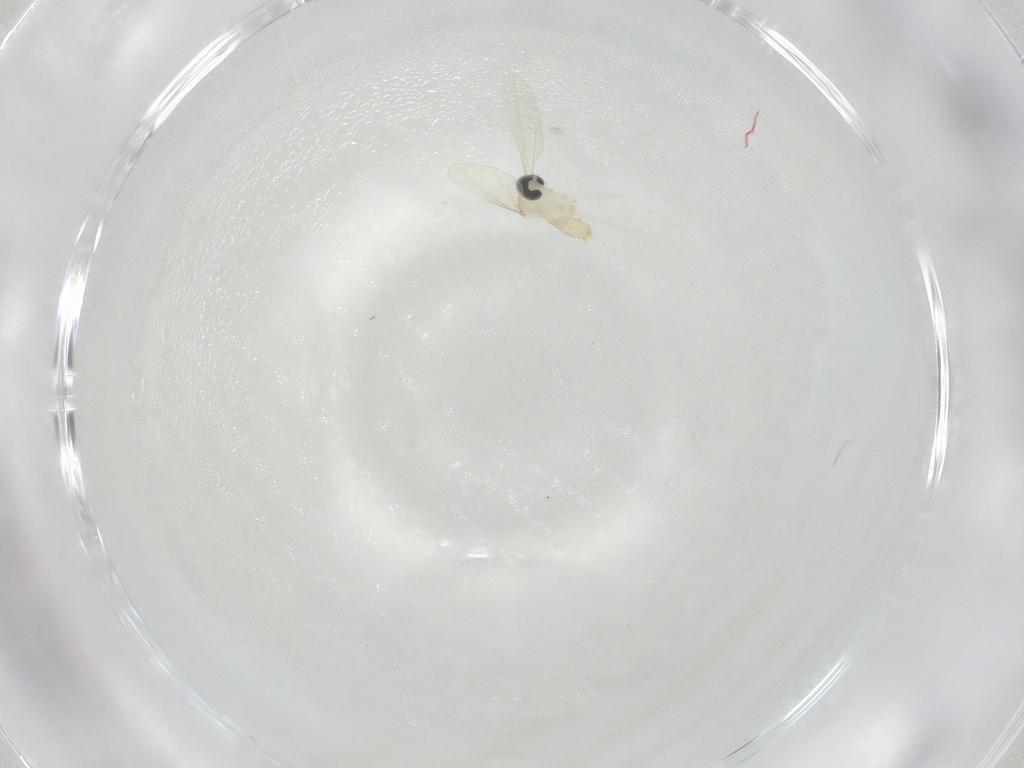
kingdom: Animalia
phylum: Arthropoda
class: Insecta
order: Diptera
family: Cecidomyiidae
